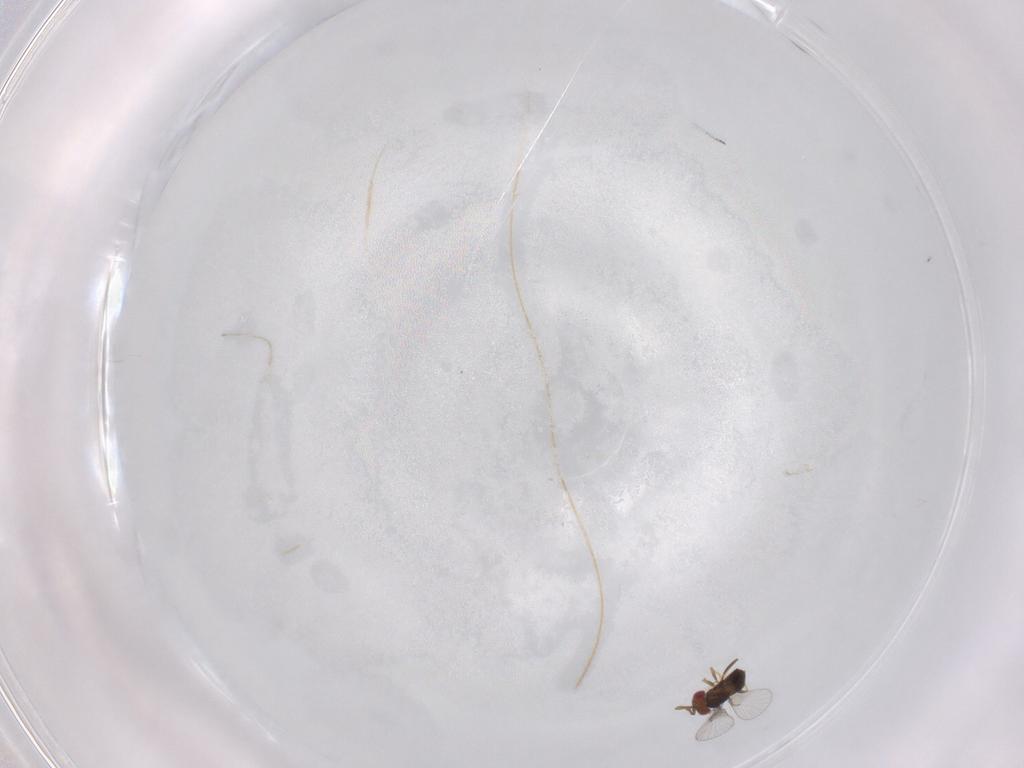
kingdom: Animalia
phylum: Arthropoda
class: Insecta
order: Hymenoptera
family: Trichogrammatidae
